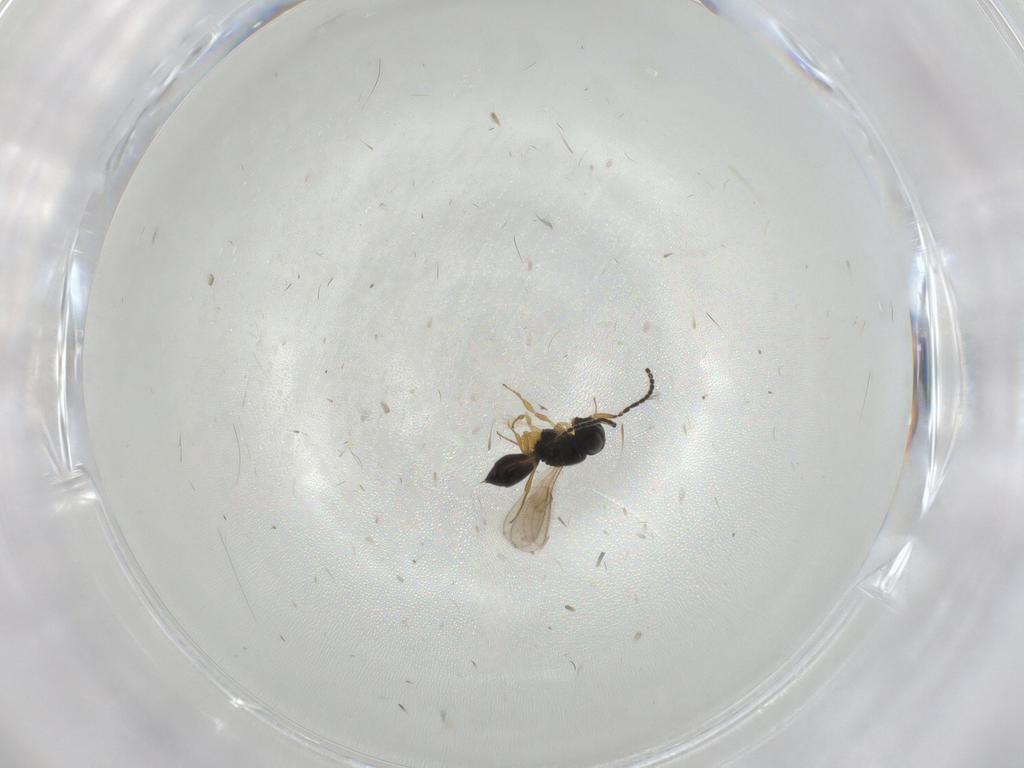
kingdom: Animalia
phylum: Arthropoda
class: Insecta
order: Hymenoptera
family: Scelionidae
